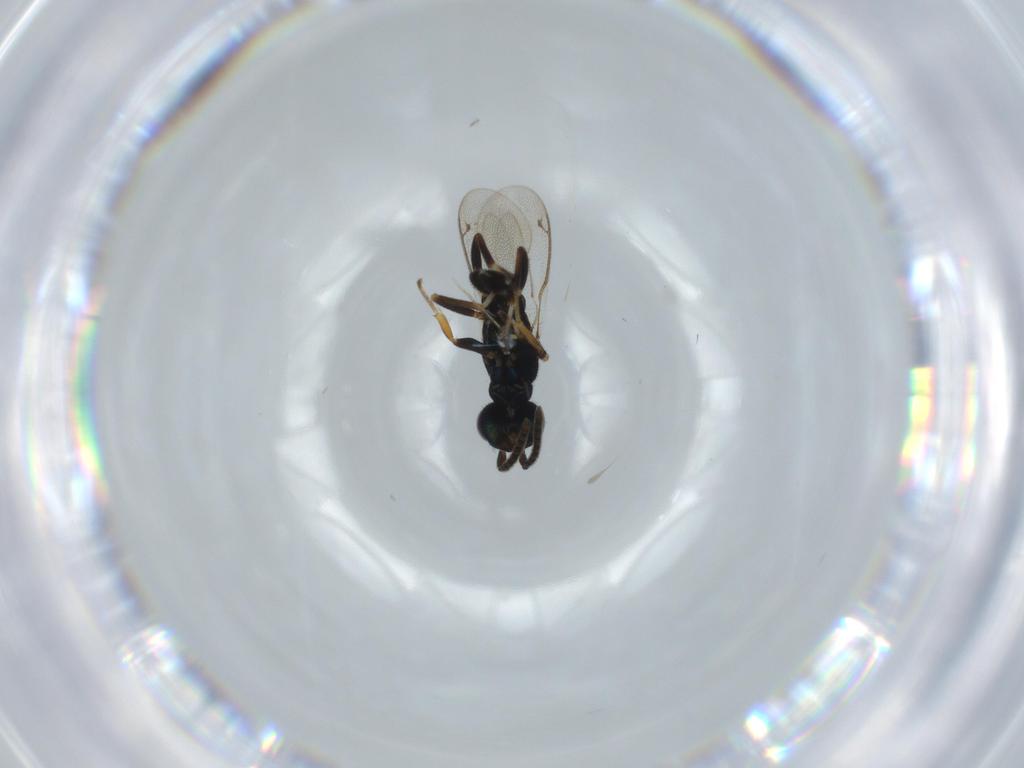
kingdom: Animalia
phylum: Arthropoda
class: Insecta
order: Hymenoptera
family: Eupelmidae
